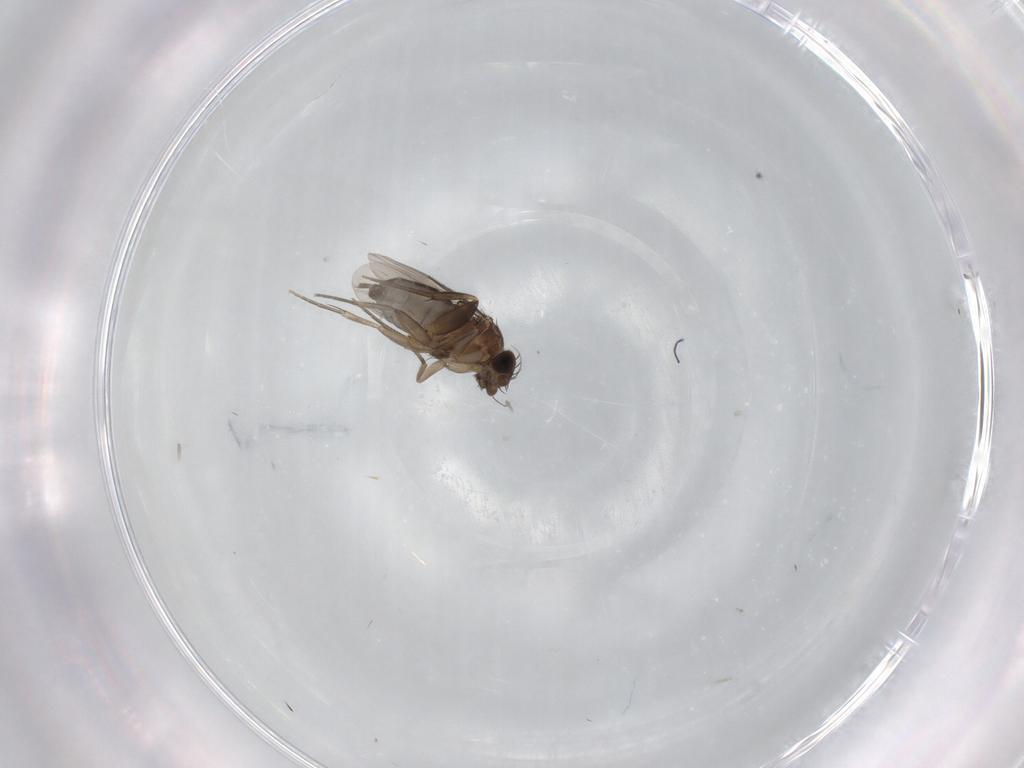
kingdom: Animalia
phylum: Arthropoda
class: Insecta
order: Diptera
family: Phoridae
